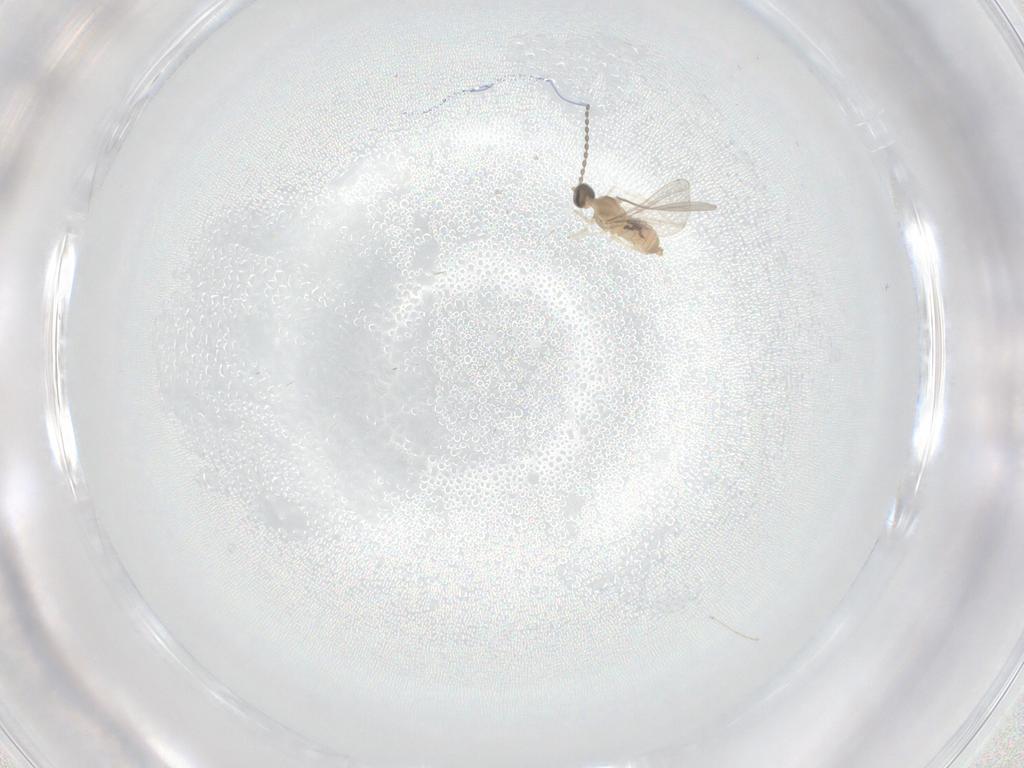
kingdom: Animalia
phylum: Arthropoda
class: Insecta
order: Diptera
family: Cecidomyiidae
